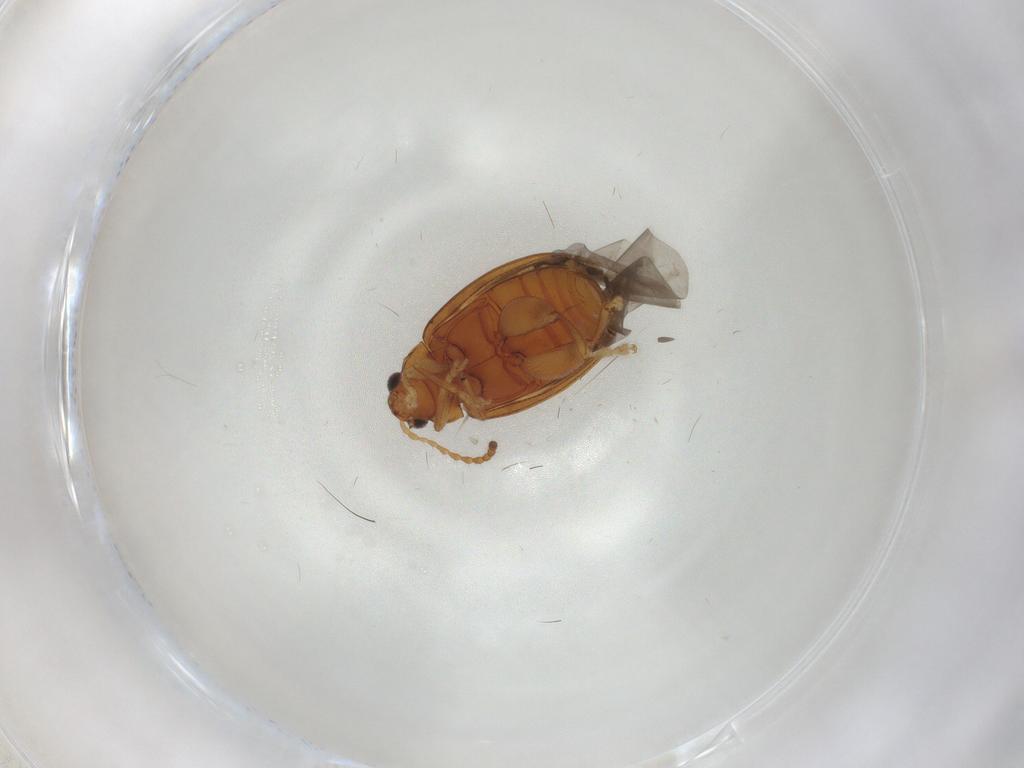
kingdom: Animalia
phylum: Arthropoda
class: Insecta
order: Coleoptera
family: Chrysomelidae
